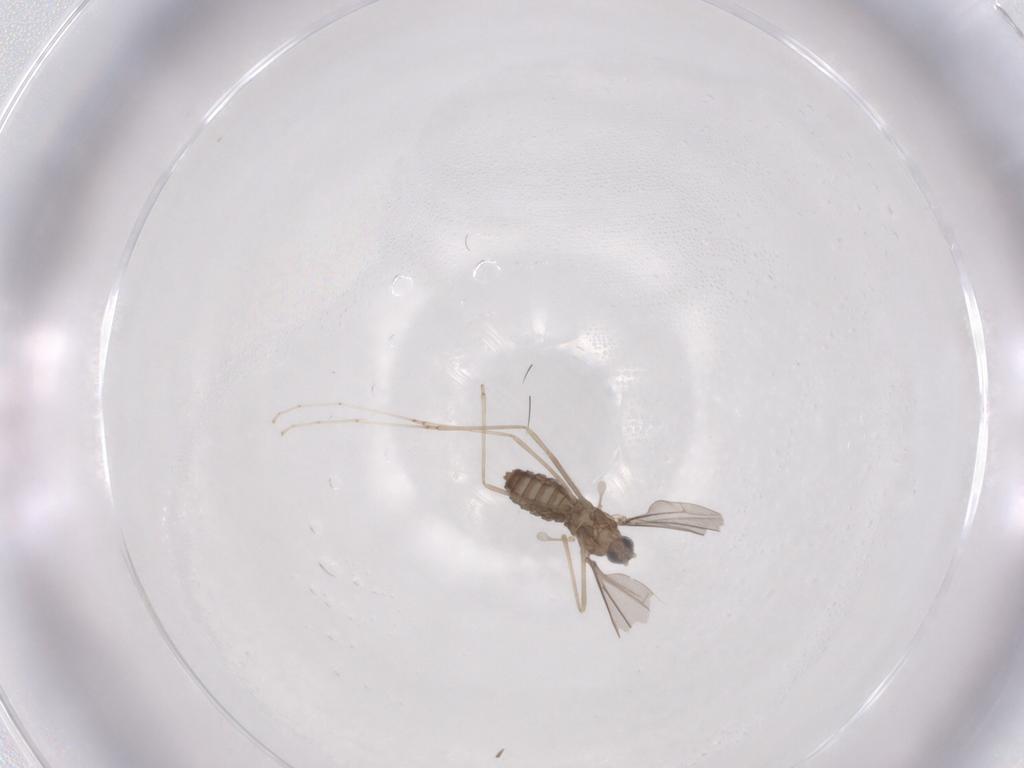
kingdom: Animalia
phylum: Arthropoda
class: Insecta
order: Diptera
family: Cecidomyiidae
